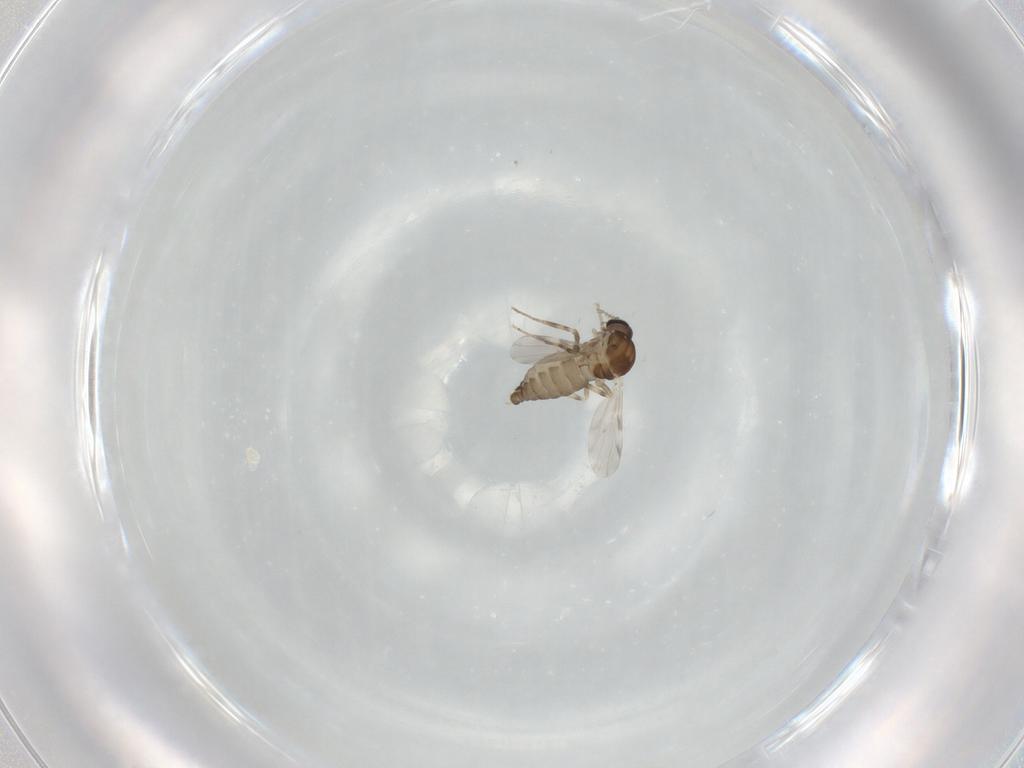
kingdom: Animalia
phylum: Arthropoda
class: Insecta
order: Diptera
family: Ceratopogonidae
